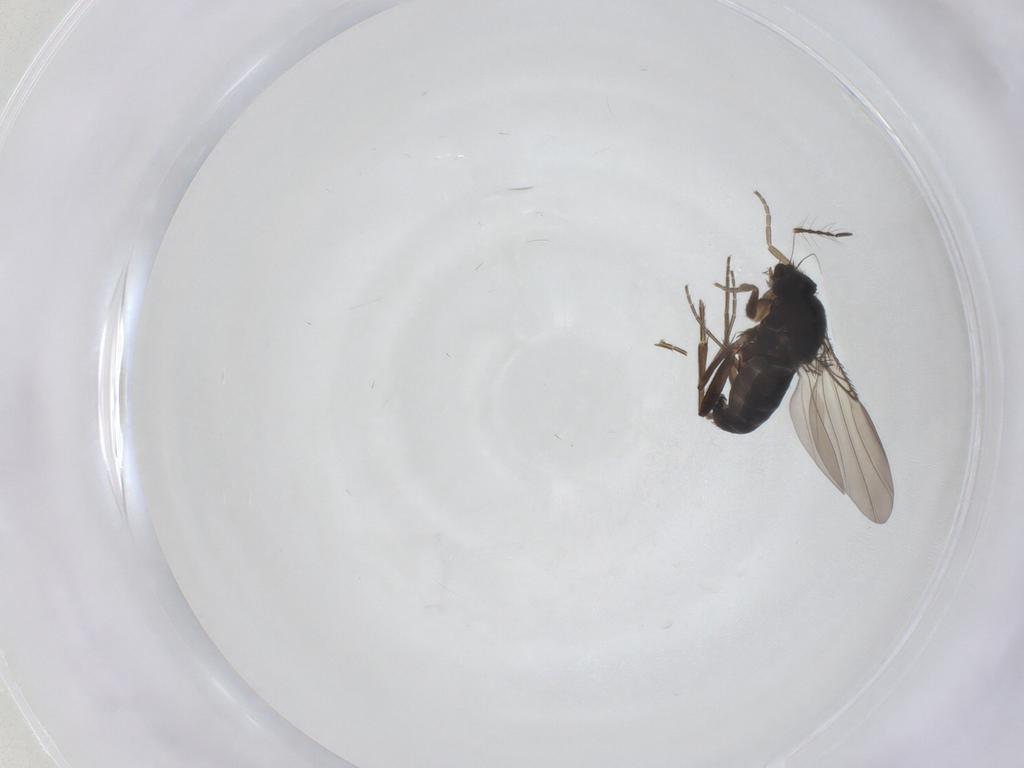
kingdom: Animalia
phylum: Arthropoda
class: Insecta
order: Diptera
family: Phoridae
